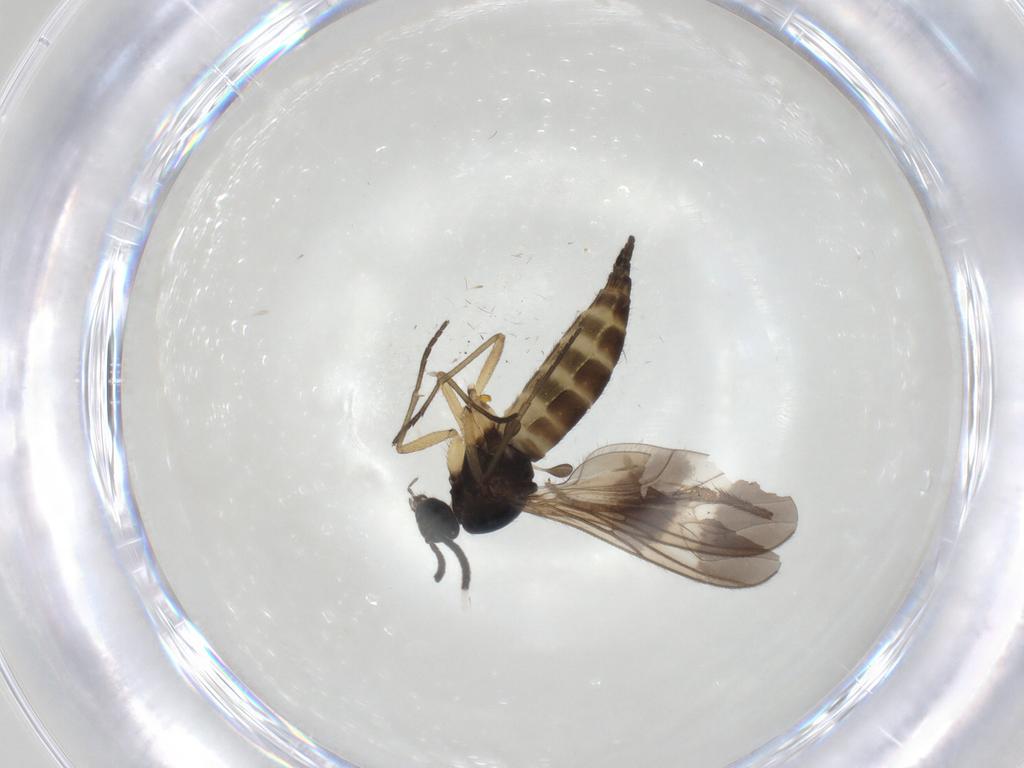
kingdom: Animalia
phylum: Arthropoda
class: Insecta
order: Diptera
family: Sciaridae
